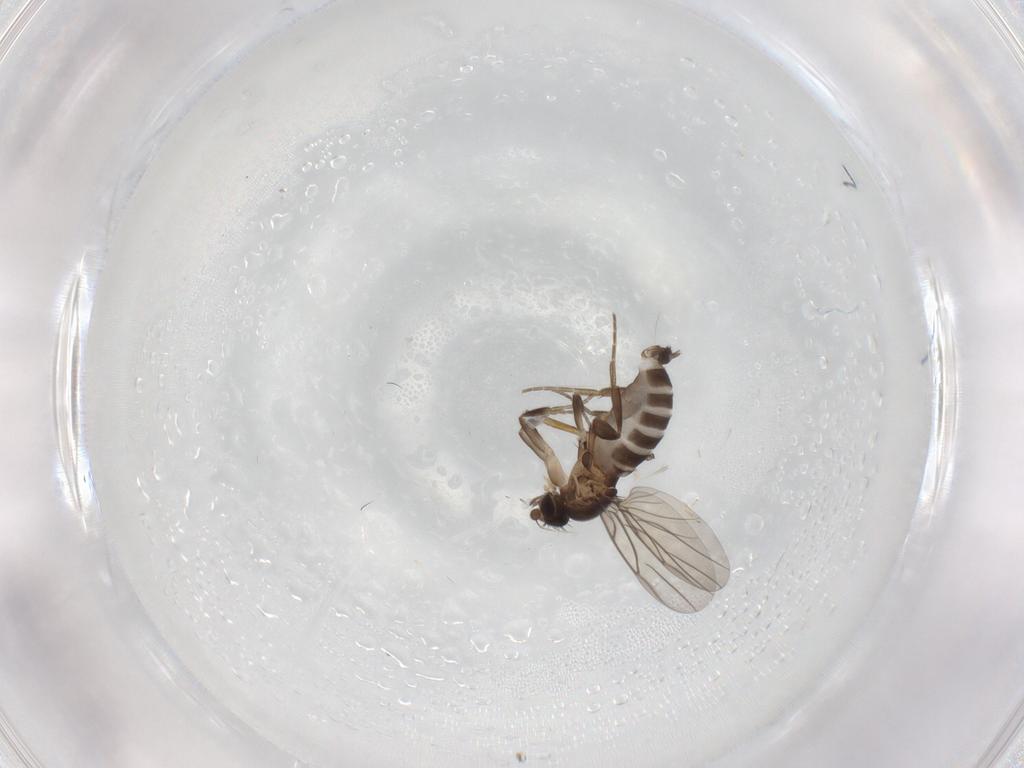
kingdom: Animalia
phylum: Arthropoda
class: Insecta
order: Diptera
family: Phoridae
